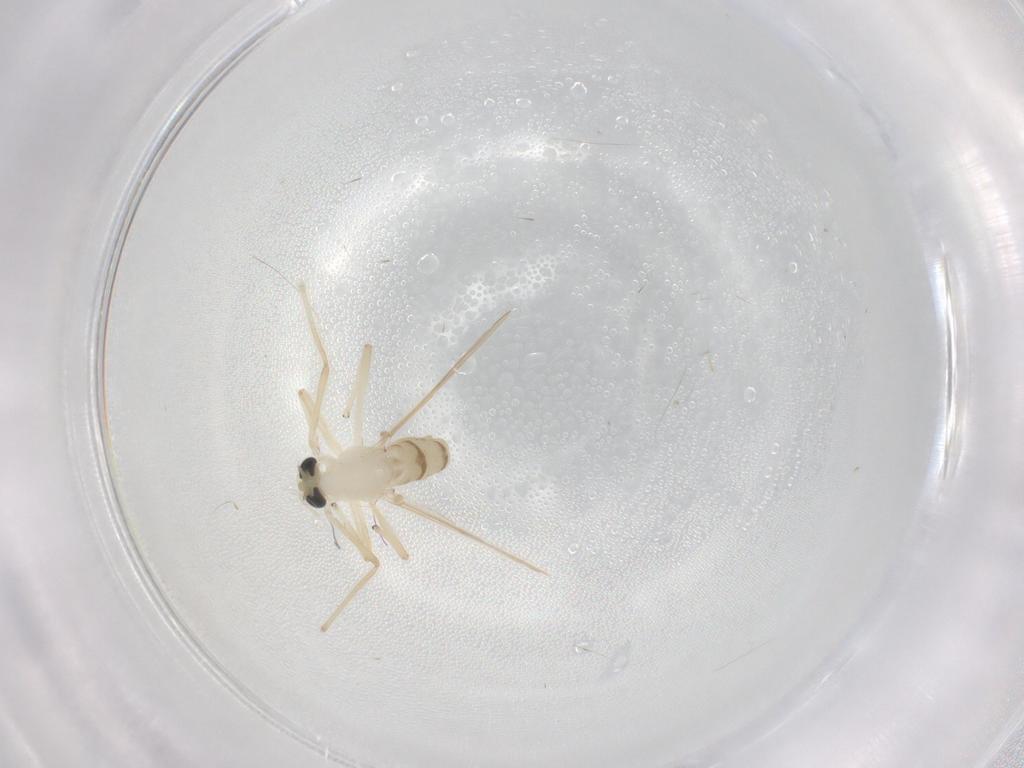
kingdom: Animalia
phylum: Arthropoda
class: Insecta
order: Diptera
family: Chironomidae
